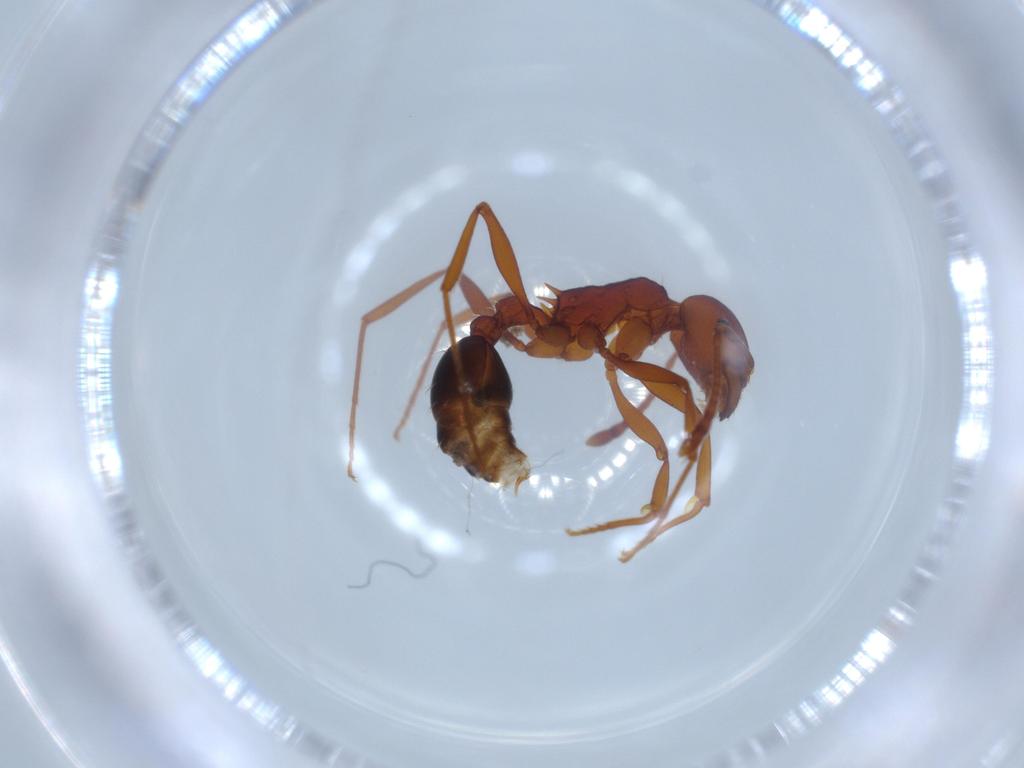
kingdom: Animalia
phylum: Arthropoda
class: Insecta
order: Hymenoptera
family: Formicidae
